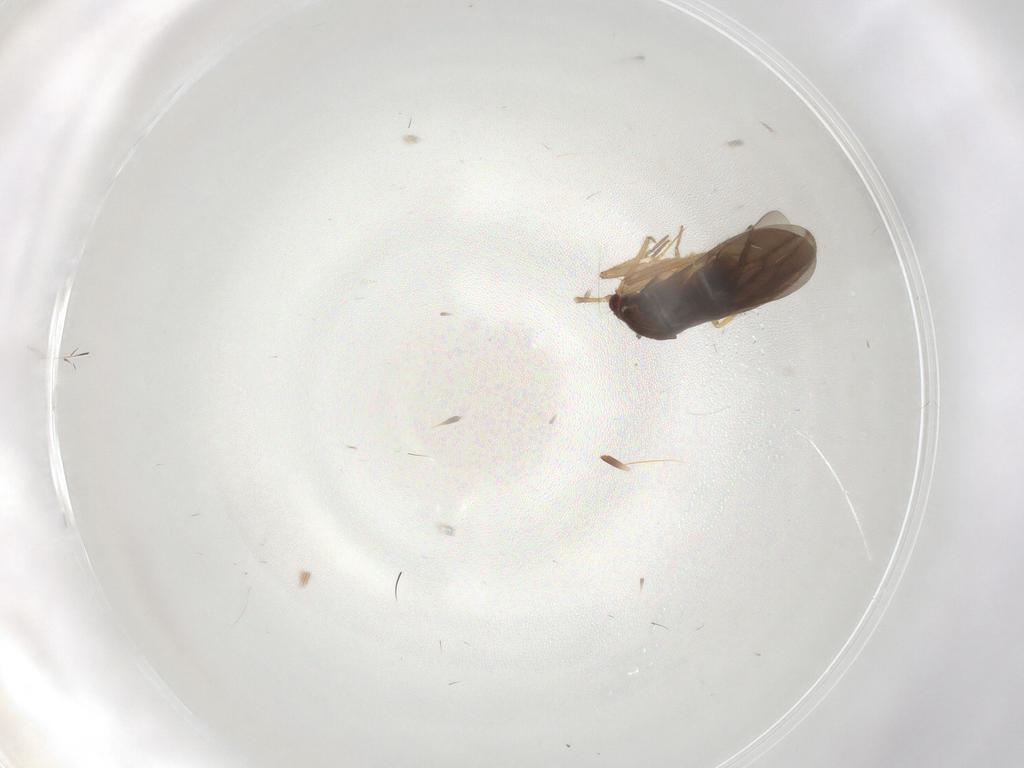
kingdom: Animalia
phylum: Arthropoda
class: Insecta
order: Hemiptera
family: Ceratocombidae
